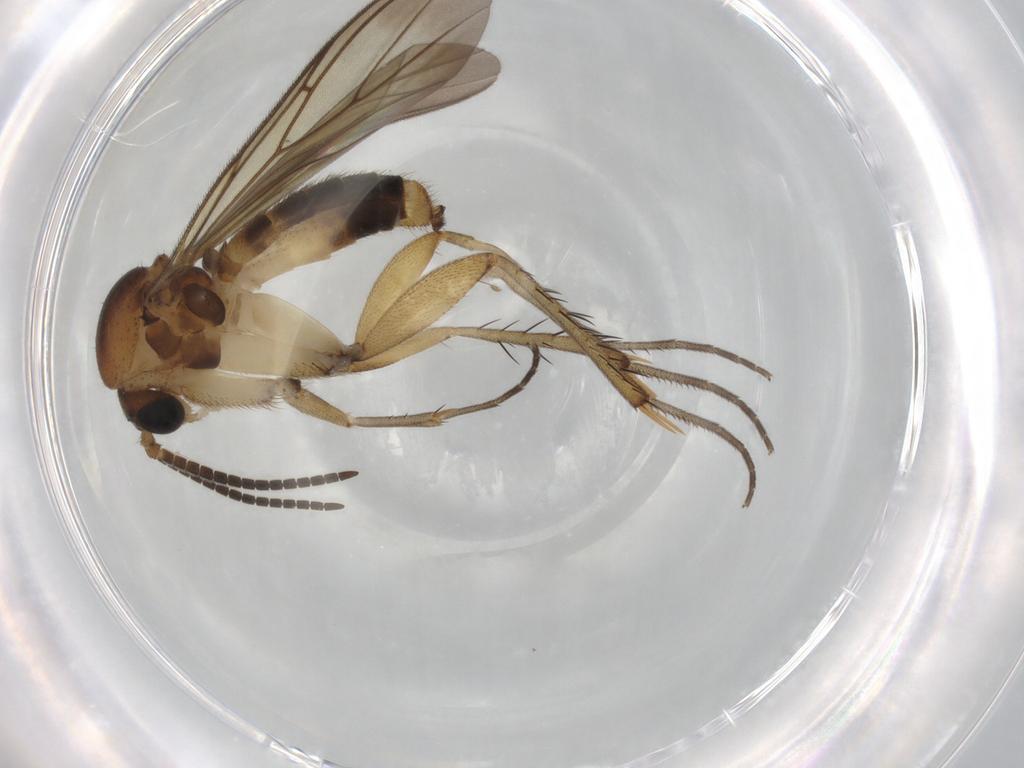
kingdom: Animalia
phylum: Arthropoda
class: Insecta
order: Diptera
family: Mycetophilidae
